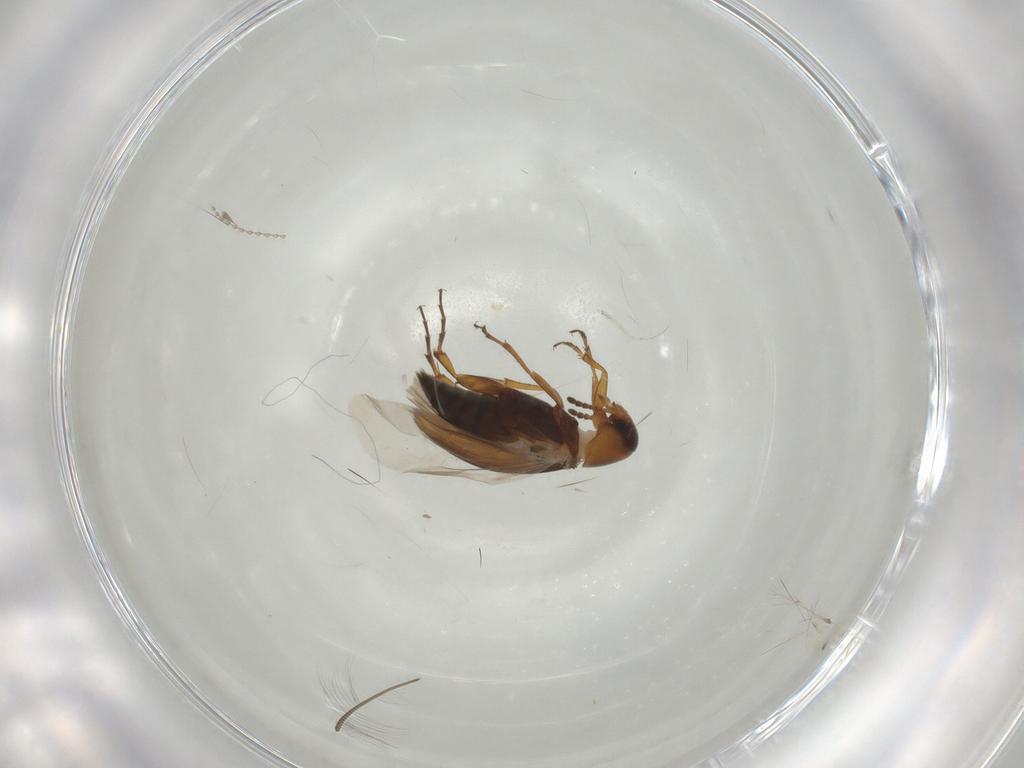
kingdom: Animalia
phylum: Arthropoda
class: Insecta
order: Coleoptera
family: Scraptiidae
